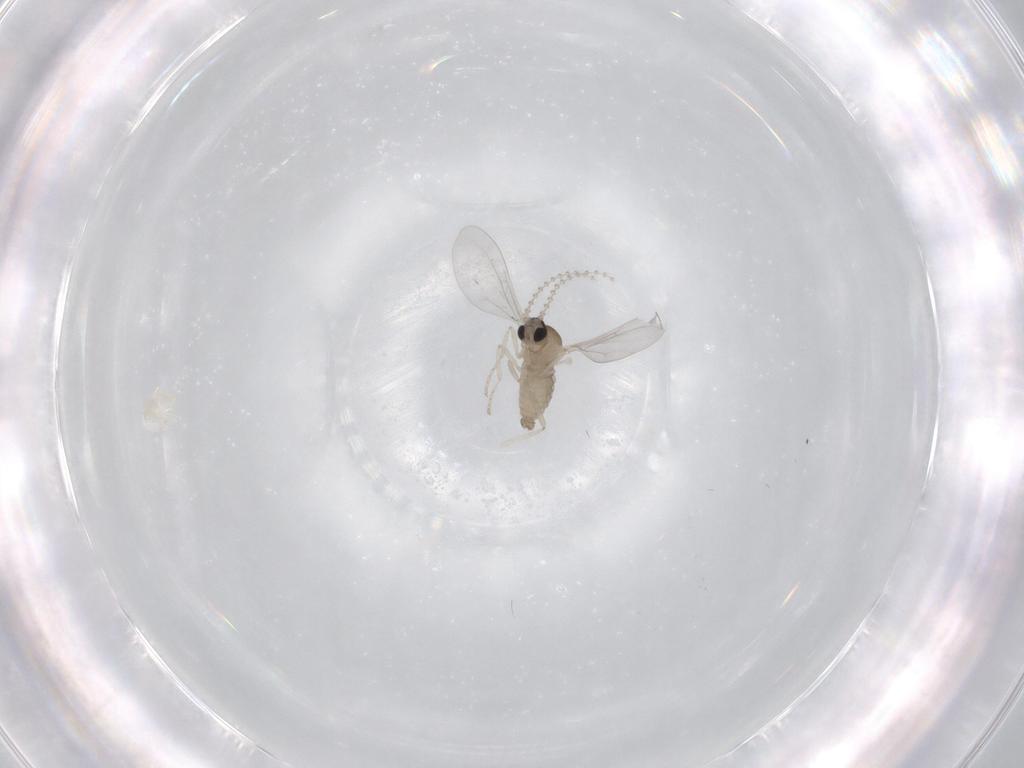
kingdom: Animalia
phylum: Arthropoda
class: Insecta
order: Diptera
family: Cecidomyiidae
